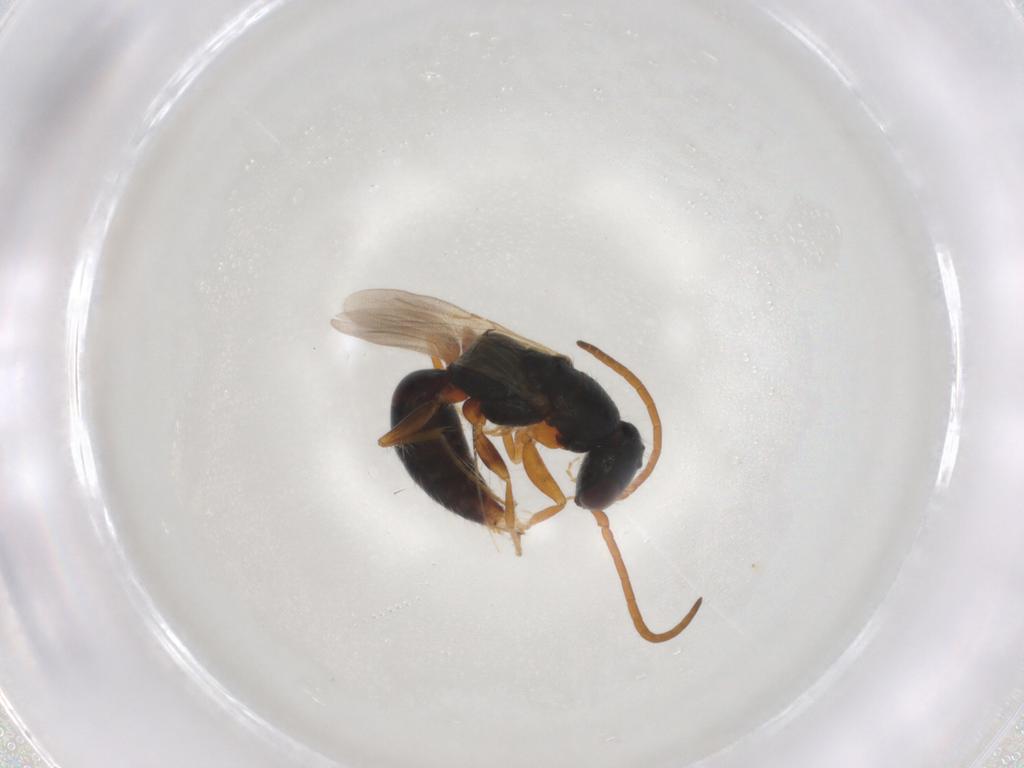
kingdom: Animalia
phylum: Arthropoda
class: Insecta
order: Hymenoptera
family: Bethylidae
